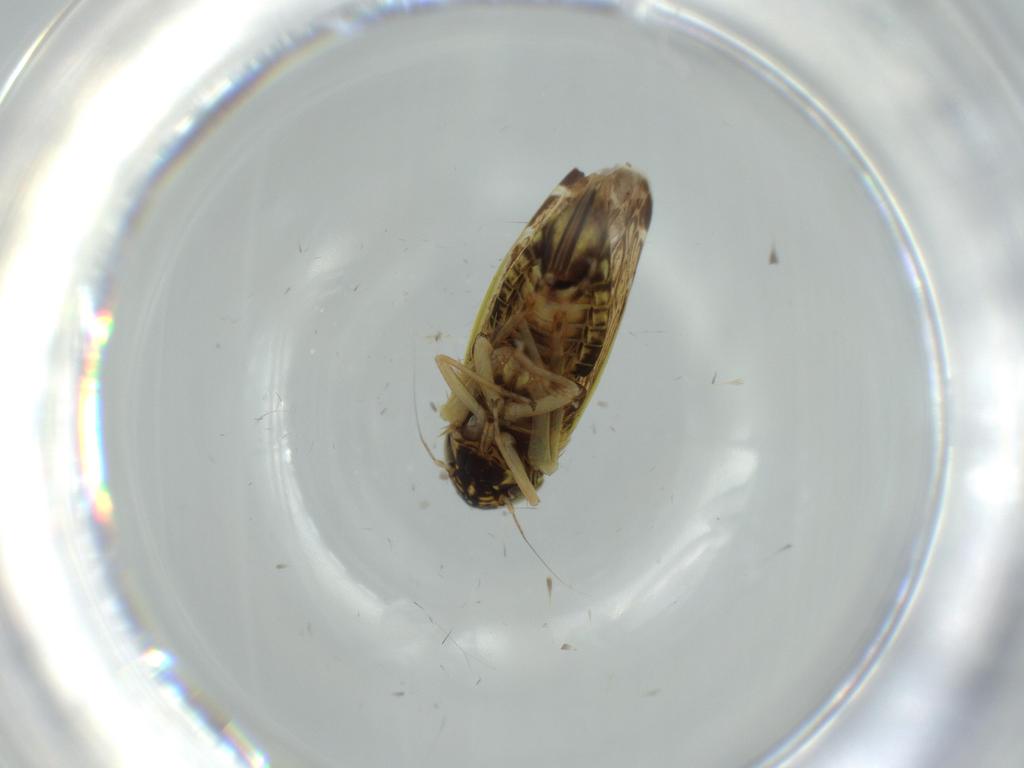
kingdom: Animalia
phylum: Arthropoda
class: Insecta
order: Hemiptera
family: Cicadellidae
